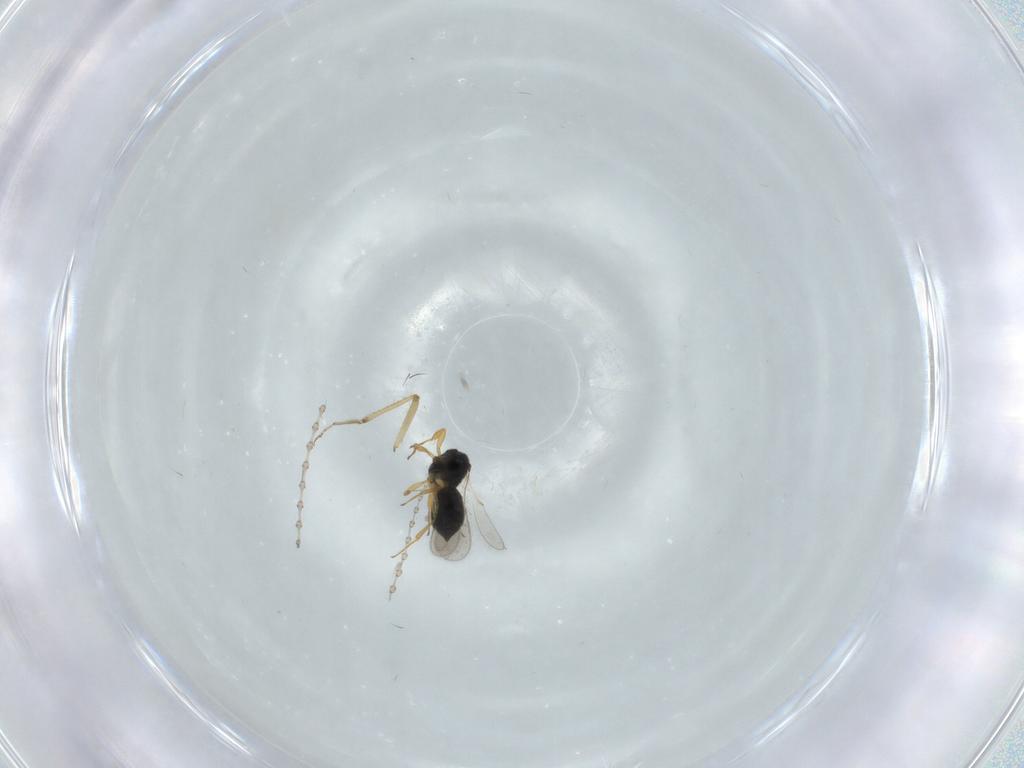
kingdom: Animalia
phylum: Arthropoda
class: Insecta
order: Hymenoptera
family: Scelionidae
